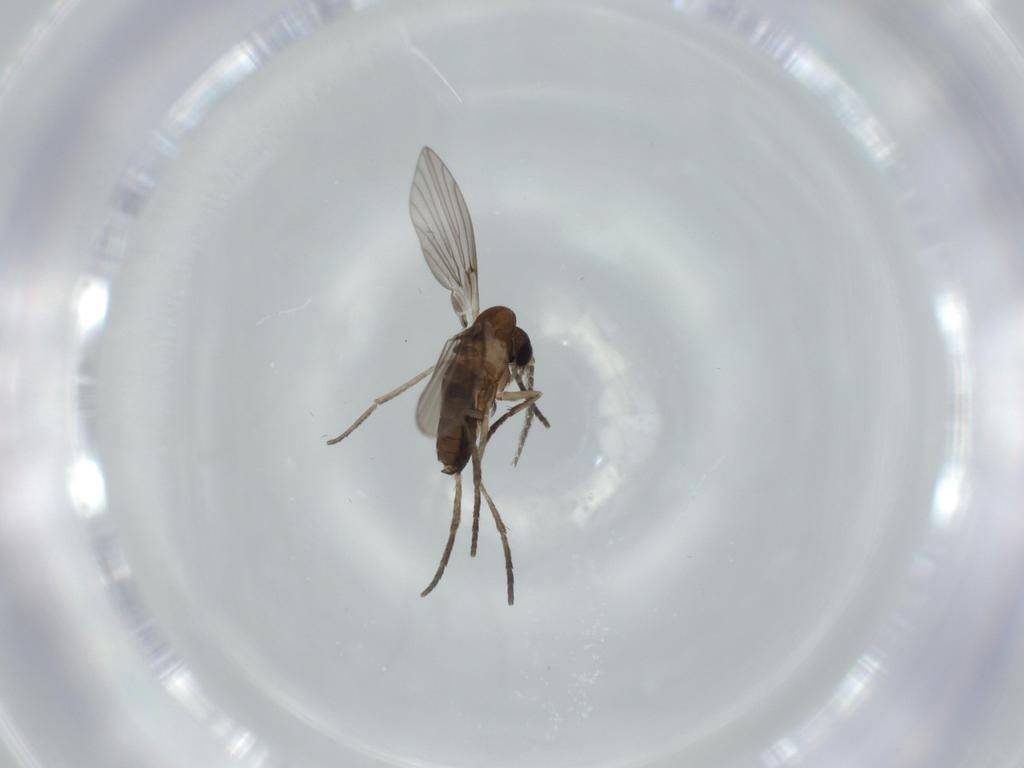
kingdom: Animalia
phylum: Arthropoda
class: Insecta
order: Diptera
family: Psychodidae
